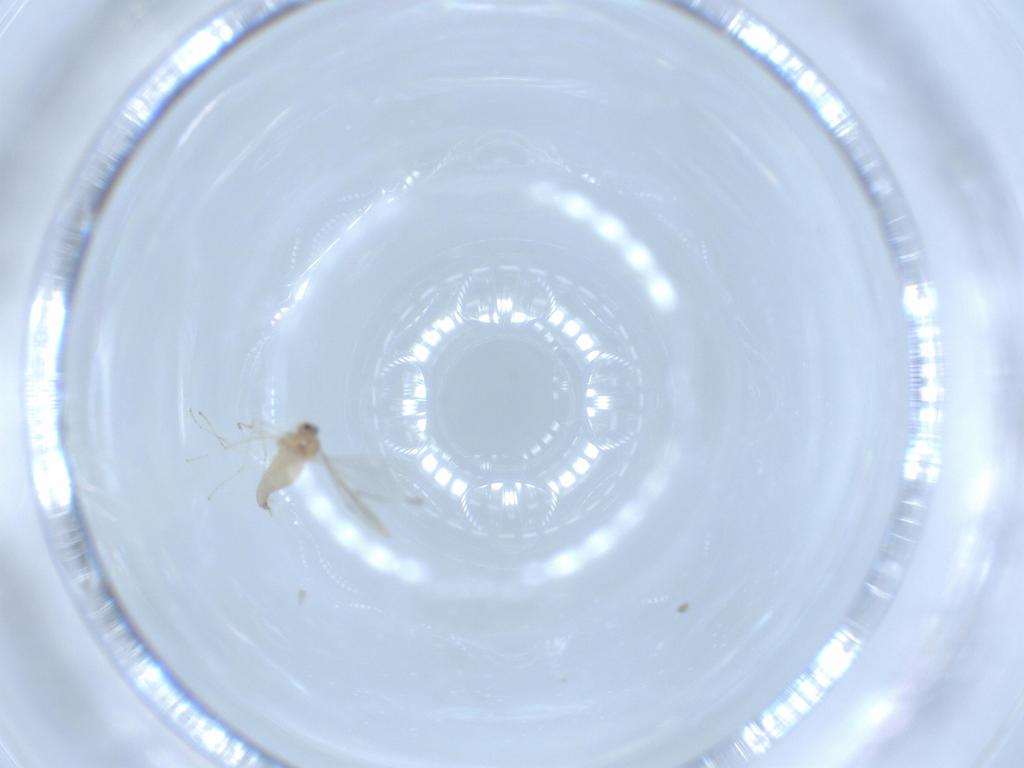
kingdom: Animalia
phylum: Arthropoda
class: Insecta
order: Diptera
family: Cecidomyiidae
